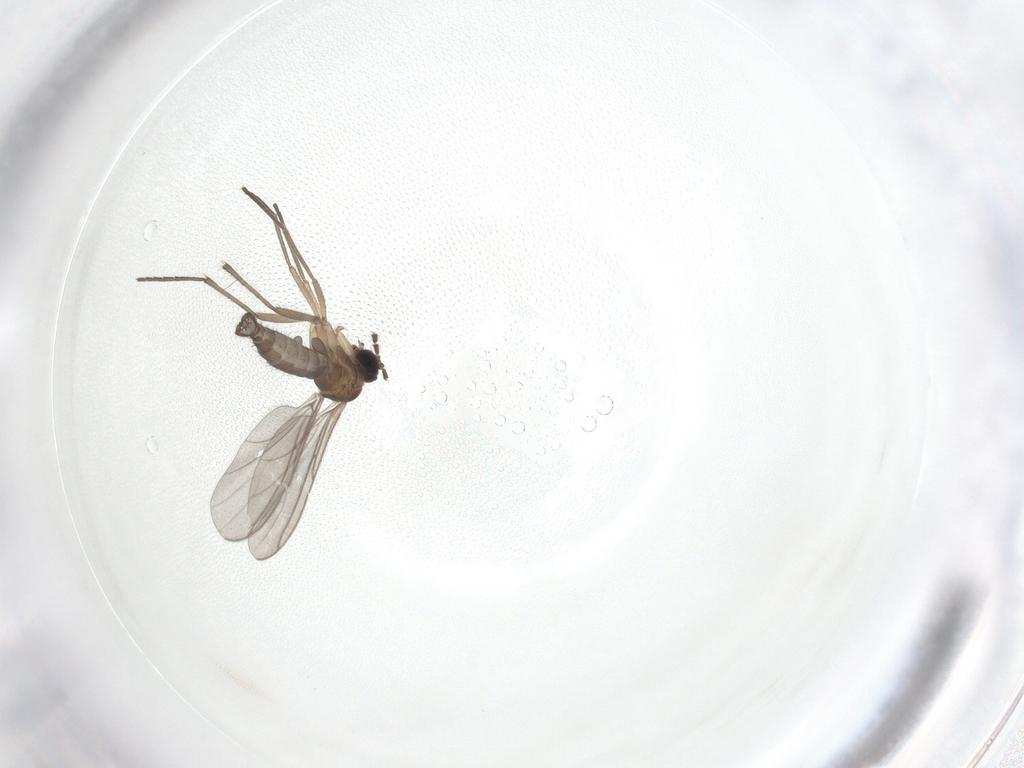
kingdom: Animalia
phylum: Arthropoda
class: Insecta
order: Diptera
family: Sciaridae
